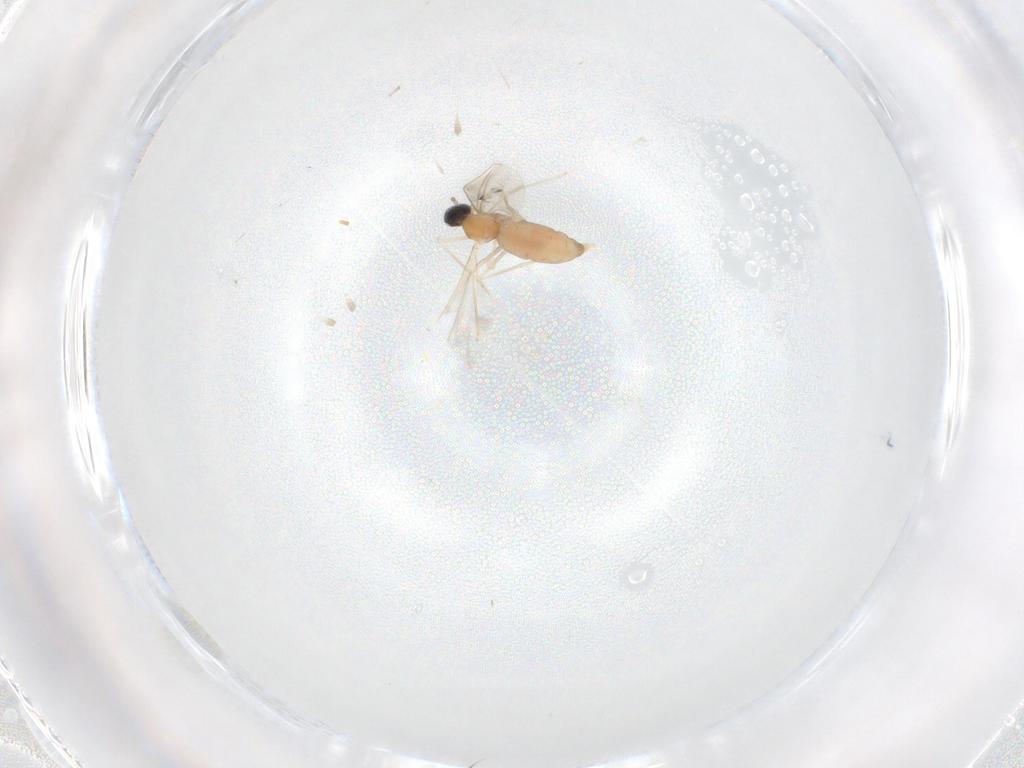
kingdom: Animalia
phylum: Arthropoda
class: Insecta
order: Diptera
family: Cecidomyiidae
